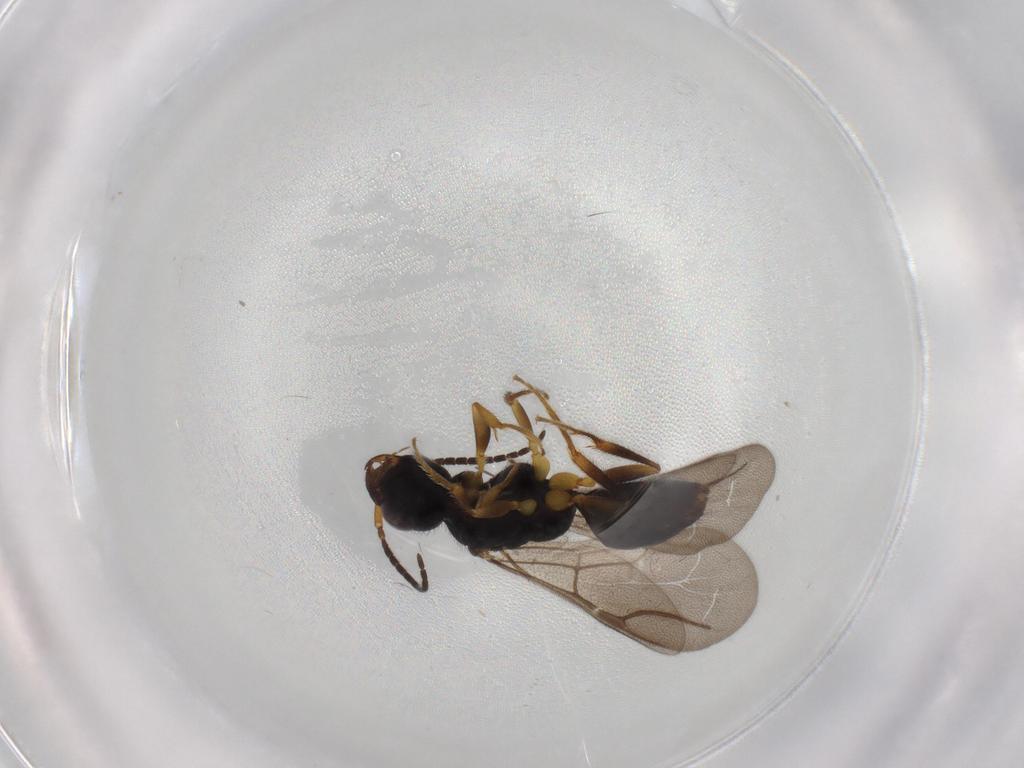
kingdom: Animalia
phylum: Arthropoda
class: Insecta
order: Hymenoptera
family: Bethylidae
